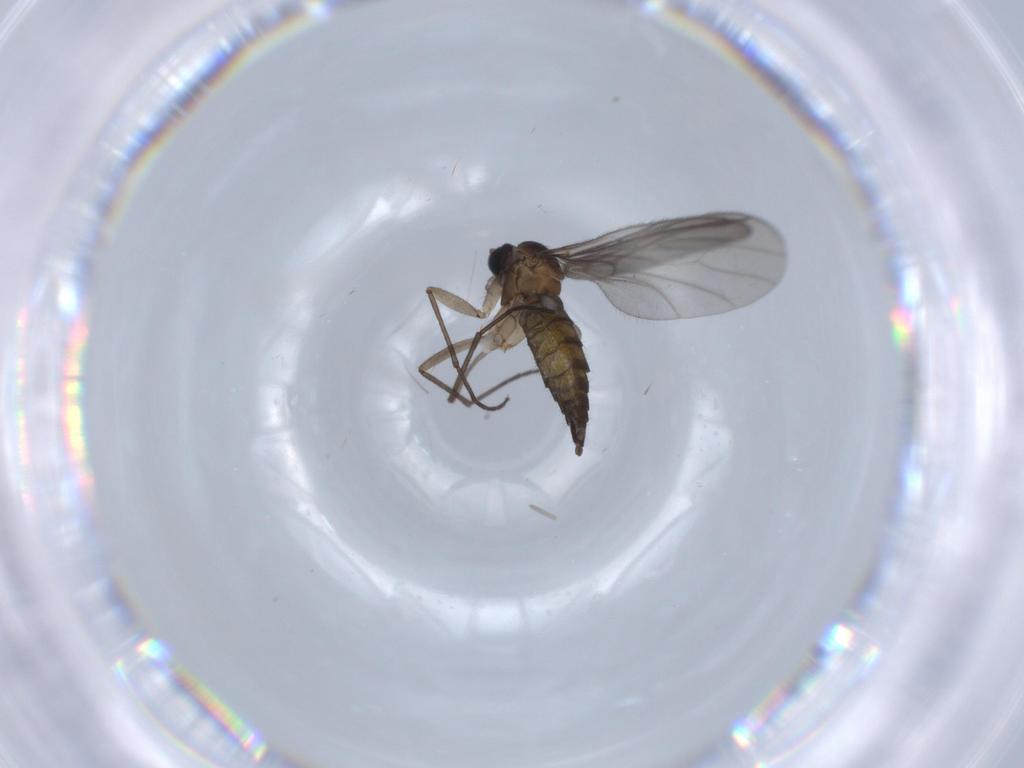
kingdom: Animalia
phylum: Arthropoda
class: Insecta
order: Diptera
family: Sciaridae
